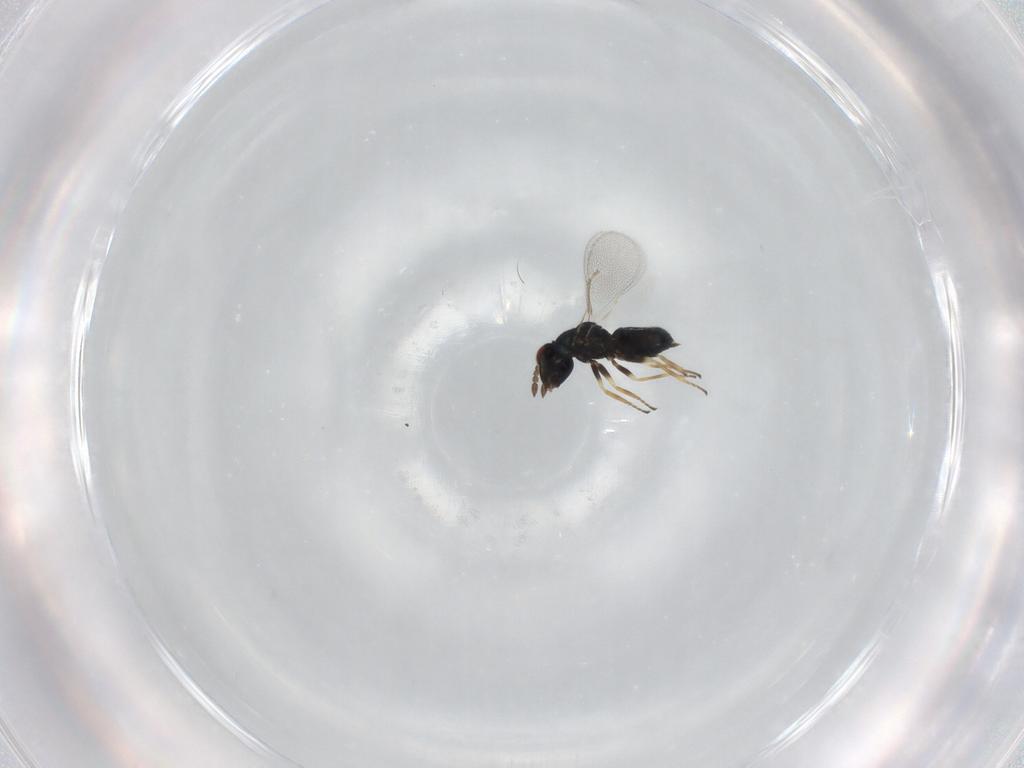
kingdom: Animalia
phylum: Arthropoda
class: Insecta
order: Hymenoptera
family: Eulophidae
